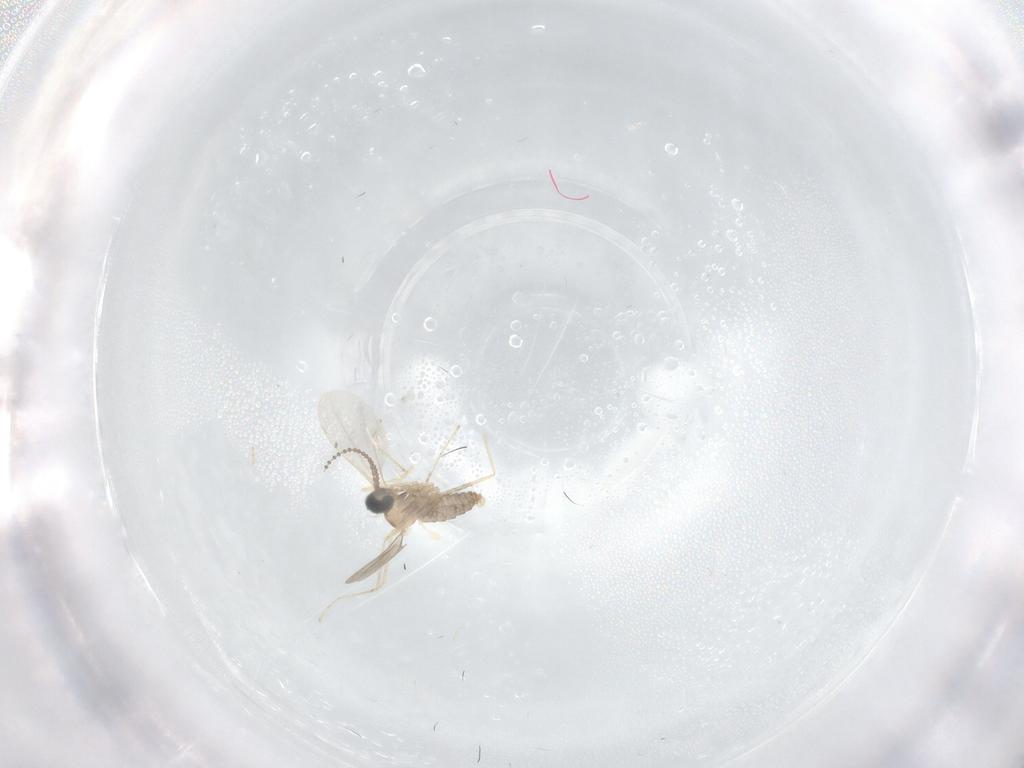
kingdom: Animalia
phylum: Arthropoda
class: Insecta
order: Diptera
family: Cecidomyiidae
